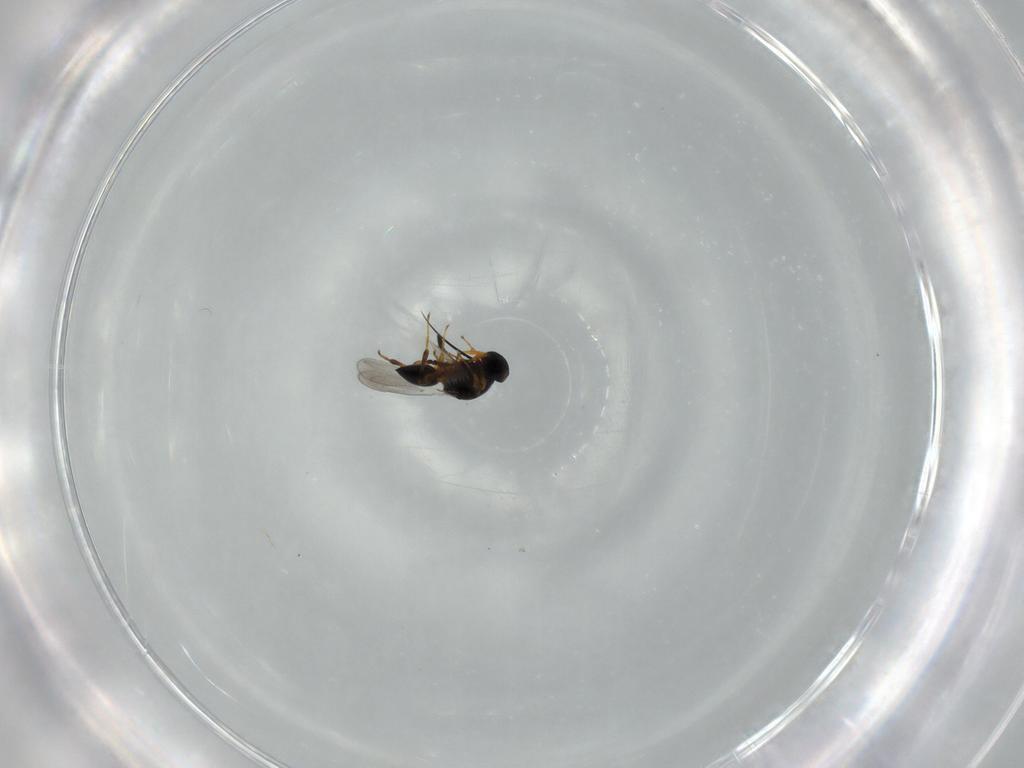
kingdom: Animalia
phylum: Arthropoda
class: Insecta
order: Hymenoptera
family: Platygastridae
